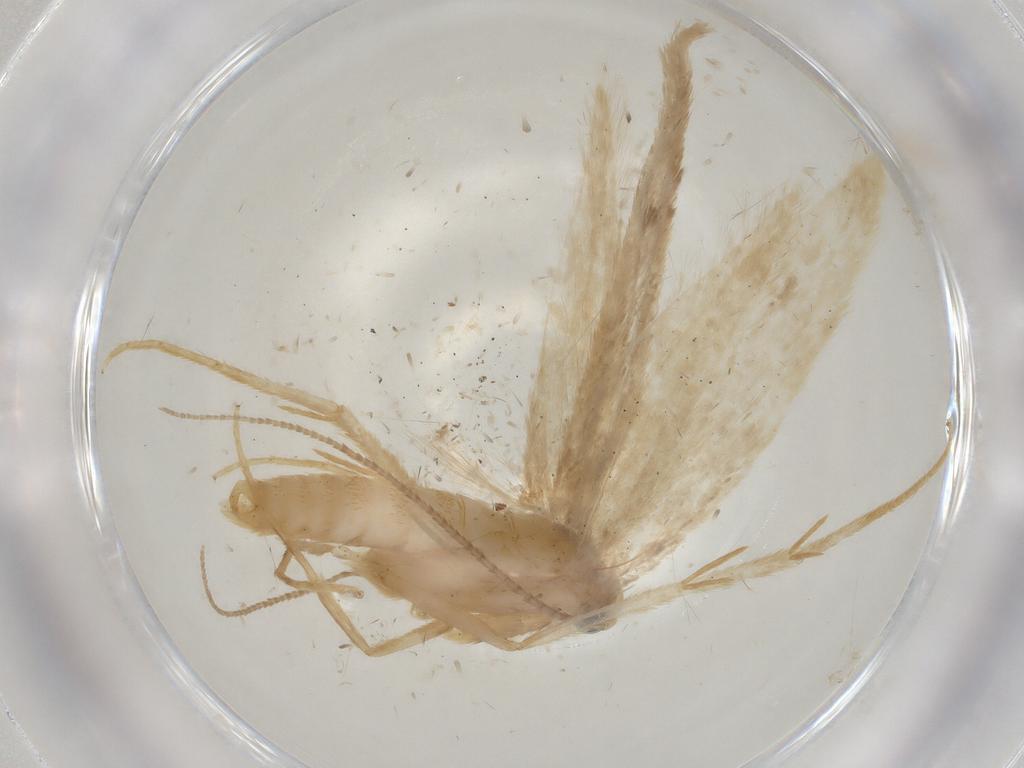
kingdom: Animalia
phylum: Arthropoda
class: Insecta
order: Lepidoptera
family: Oecophoridae
